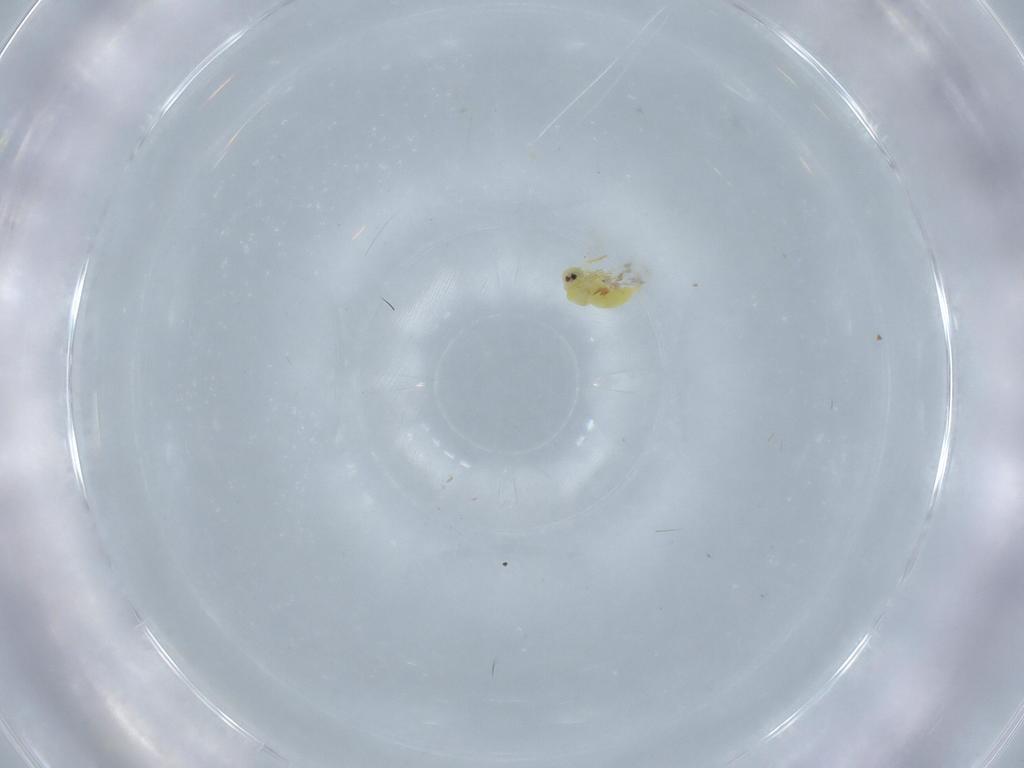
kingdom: Animalia
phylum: Arthropoda
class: Insecta
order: Hemiptera
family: Aleyrodidae
